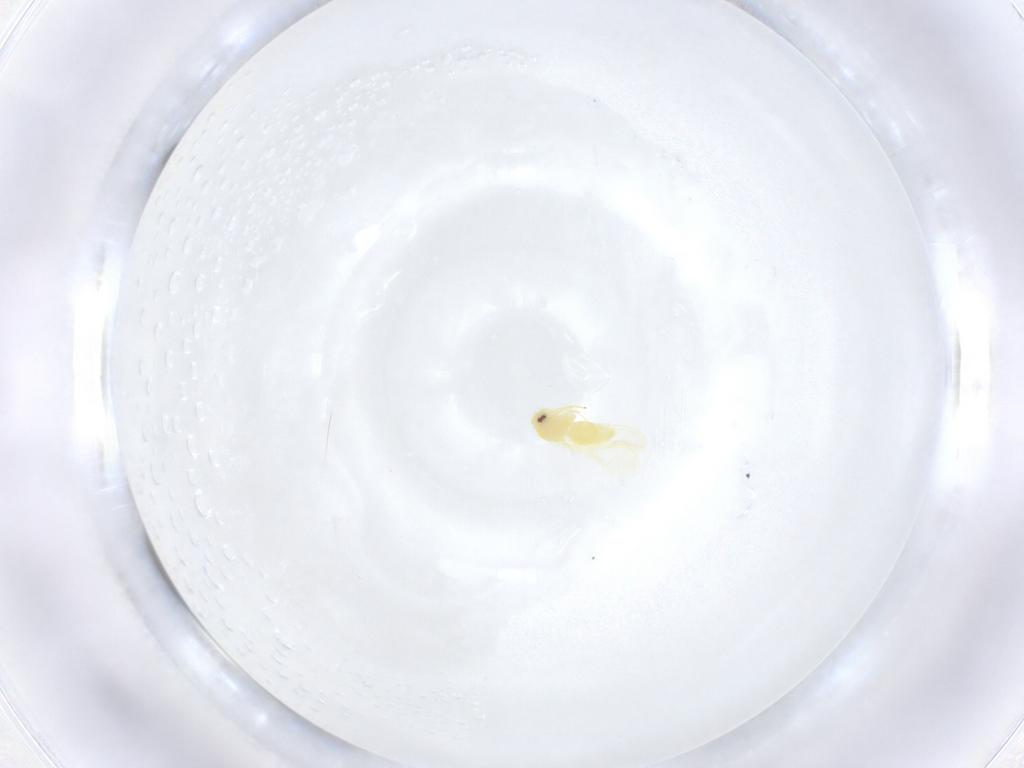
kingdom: Animalia
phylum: Arthropoda
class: Insecta
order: Hemiptera
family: Aleyrodidae
